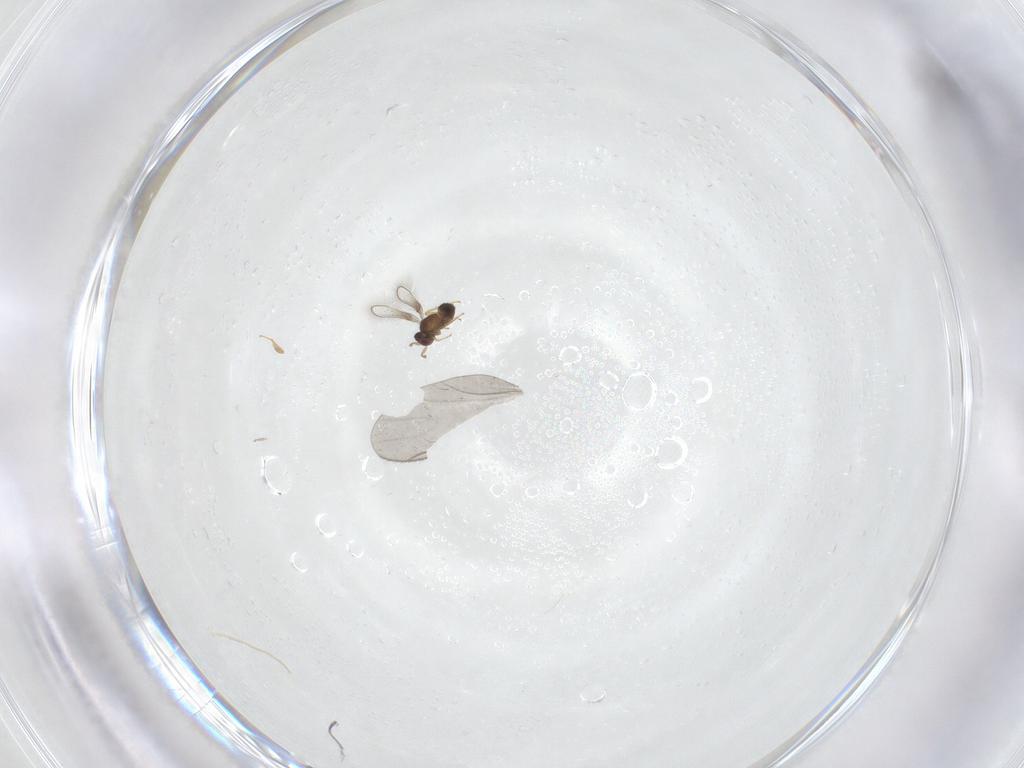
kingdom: Animalia
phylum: Arthropoda
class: Insecta
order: Diptera
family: Sciaridae
